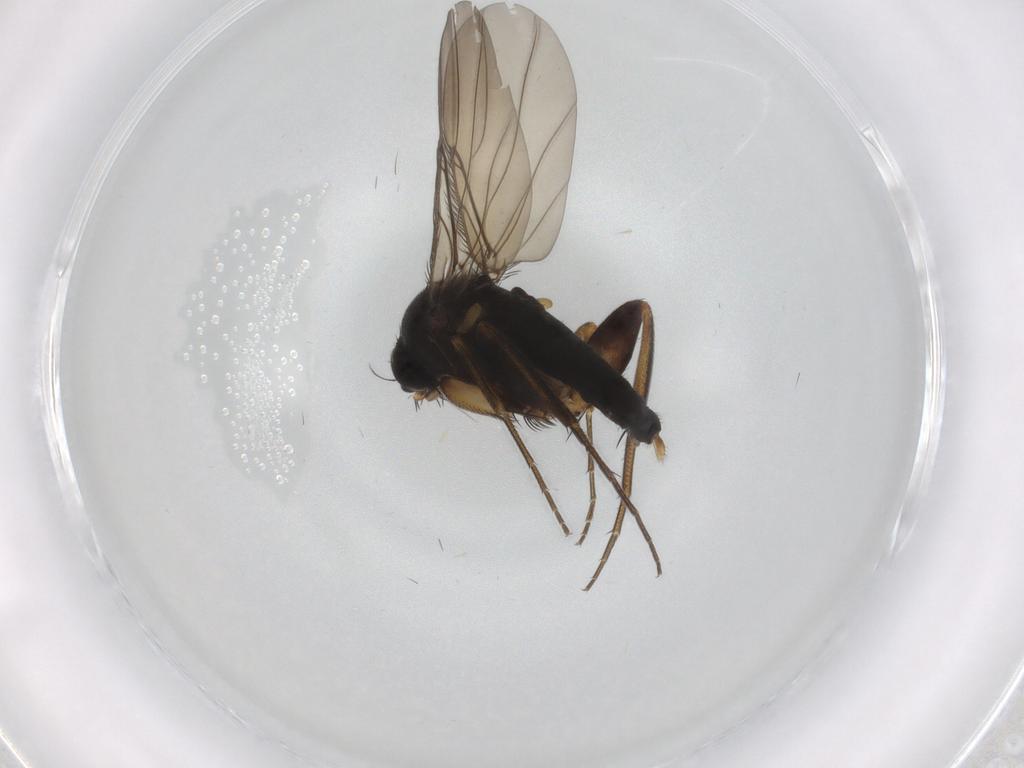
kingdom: Animalia
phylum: Arthropoda
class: Insecta
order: Diptera
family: Phoridae
